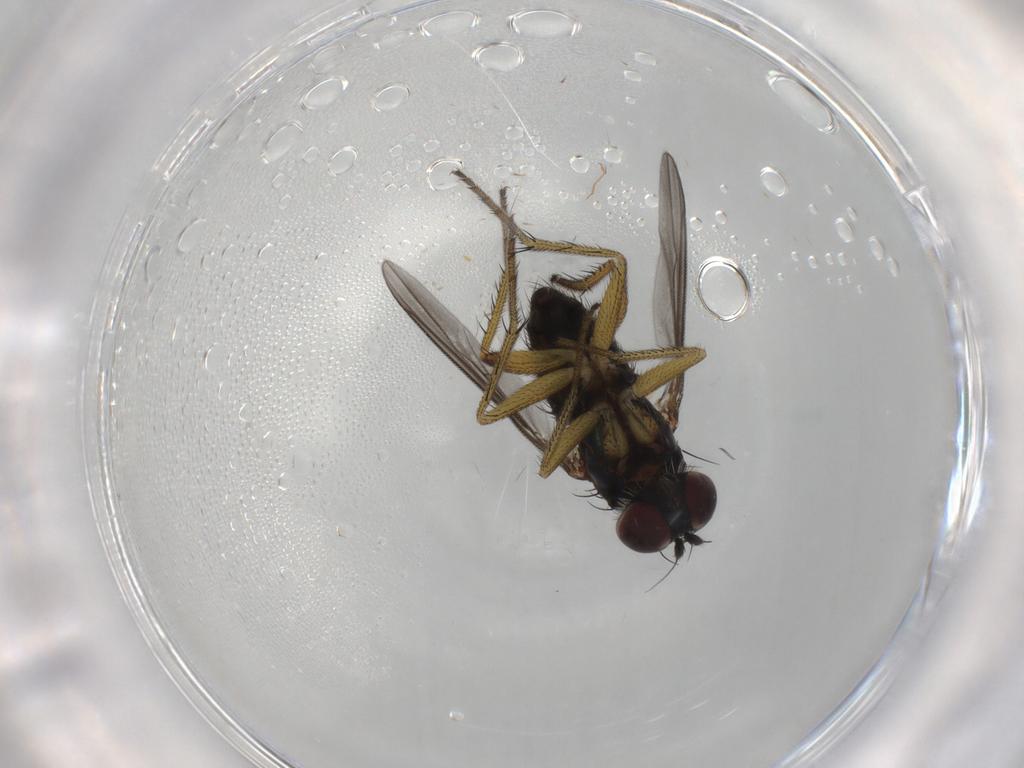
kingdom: Animalia
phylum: Arthropoda
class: Insecta
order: Diptera
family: Dolichopodidae
